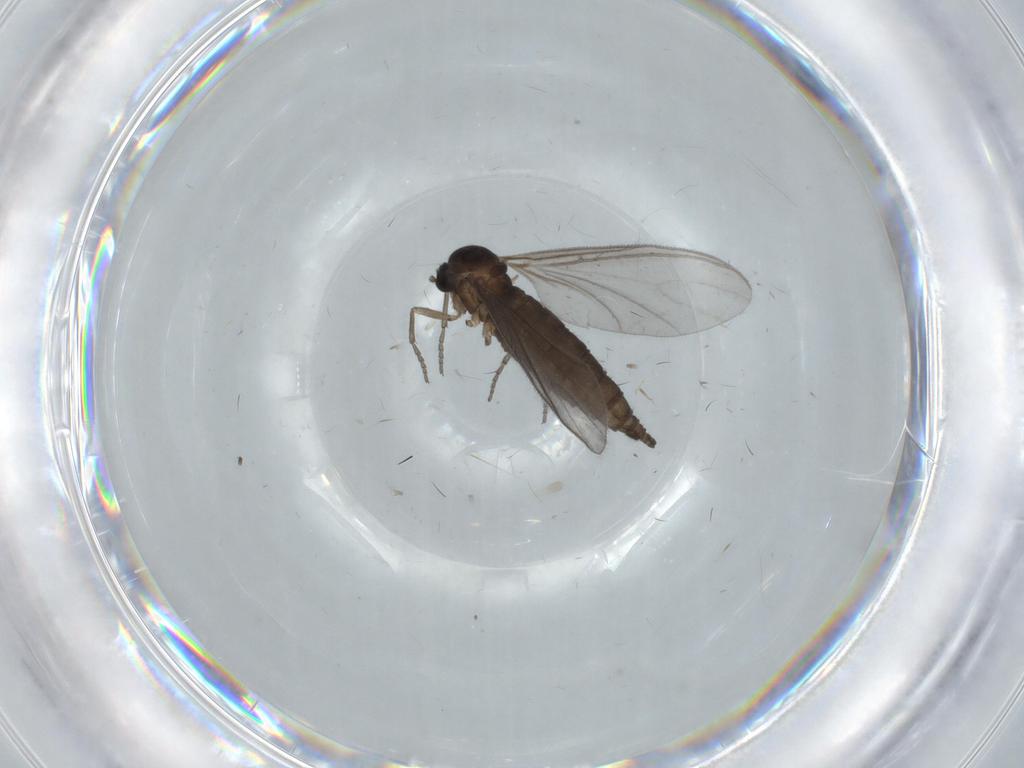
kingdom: Animalia
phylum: Arthropoda
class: Insecta
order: Diptera
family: Sciaridae
